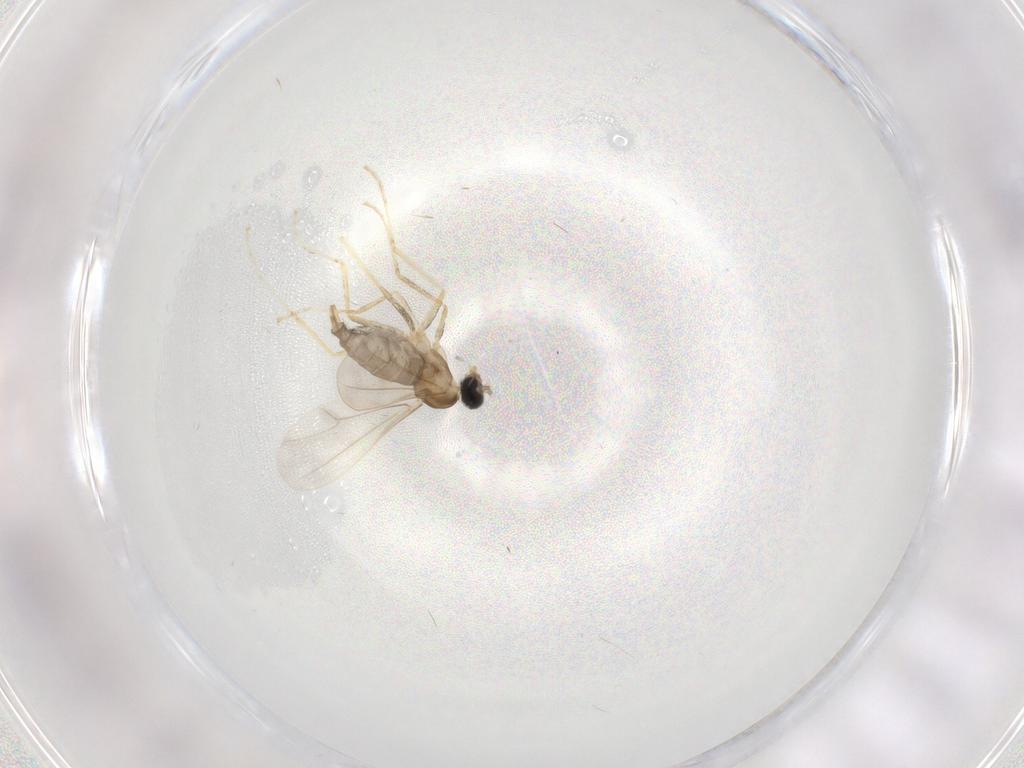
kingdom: Animalia
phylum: Arthropoda
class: Insecta
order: Diptera
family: Cecidomyiidae
